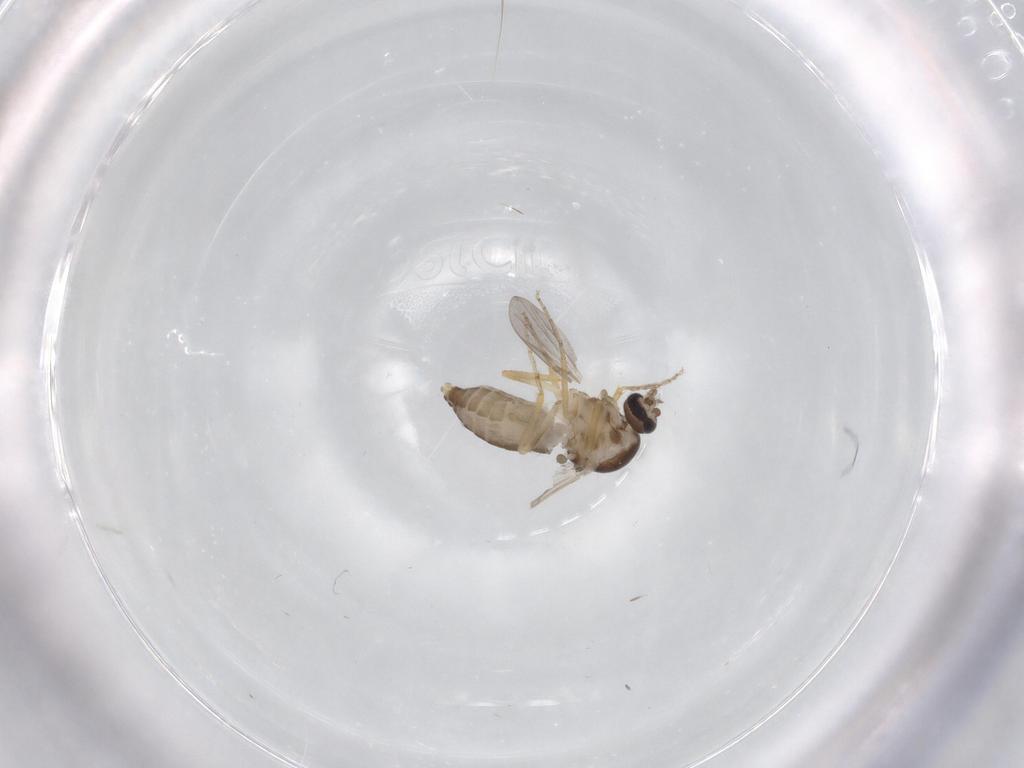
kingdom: Animalia
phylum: Arthropoda
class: Insecta
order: Diptera
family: Ceratopogonidae
